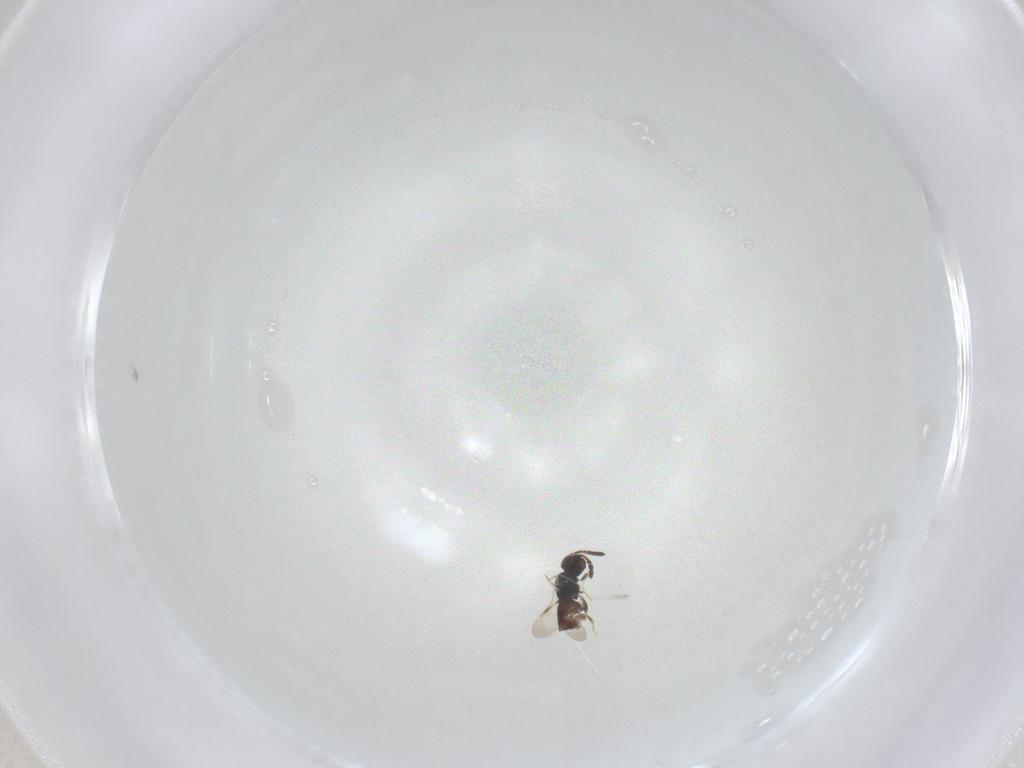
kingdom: Animalia
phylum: Arthropoda
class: Insecta
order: Hymenoptera
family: Ceraphronidae
